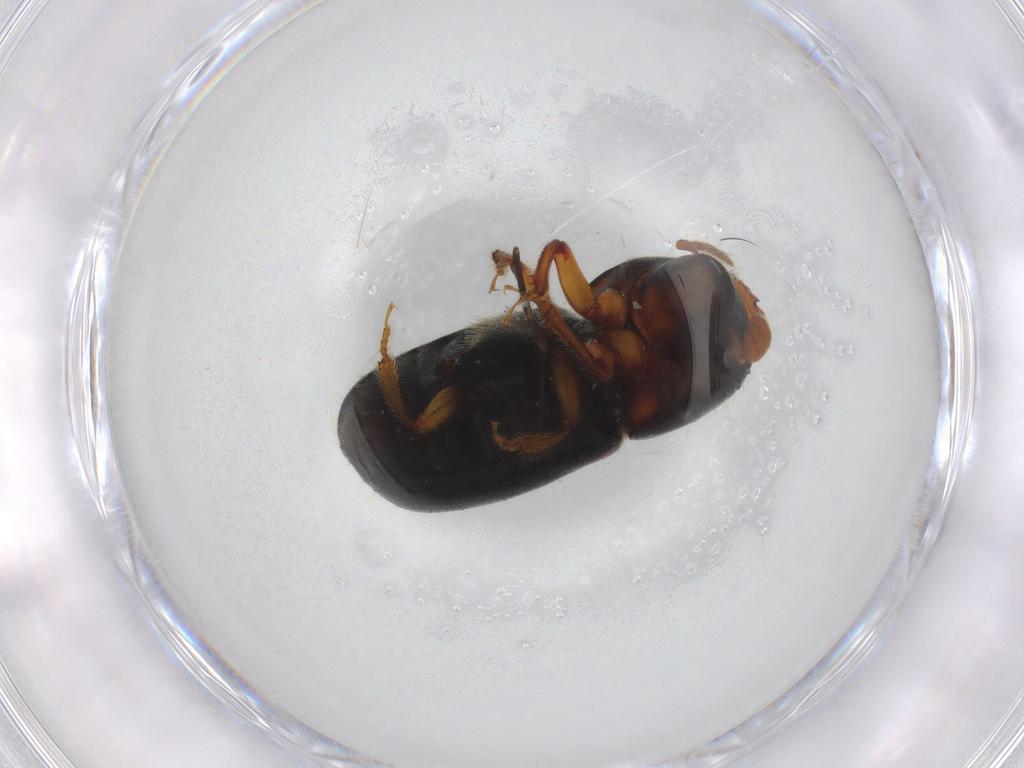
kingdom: Animalia
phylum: Arthropoda
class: Insecta
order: Coleoptera
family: Curculionidae
